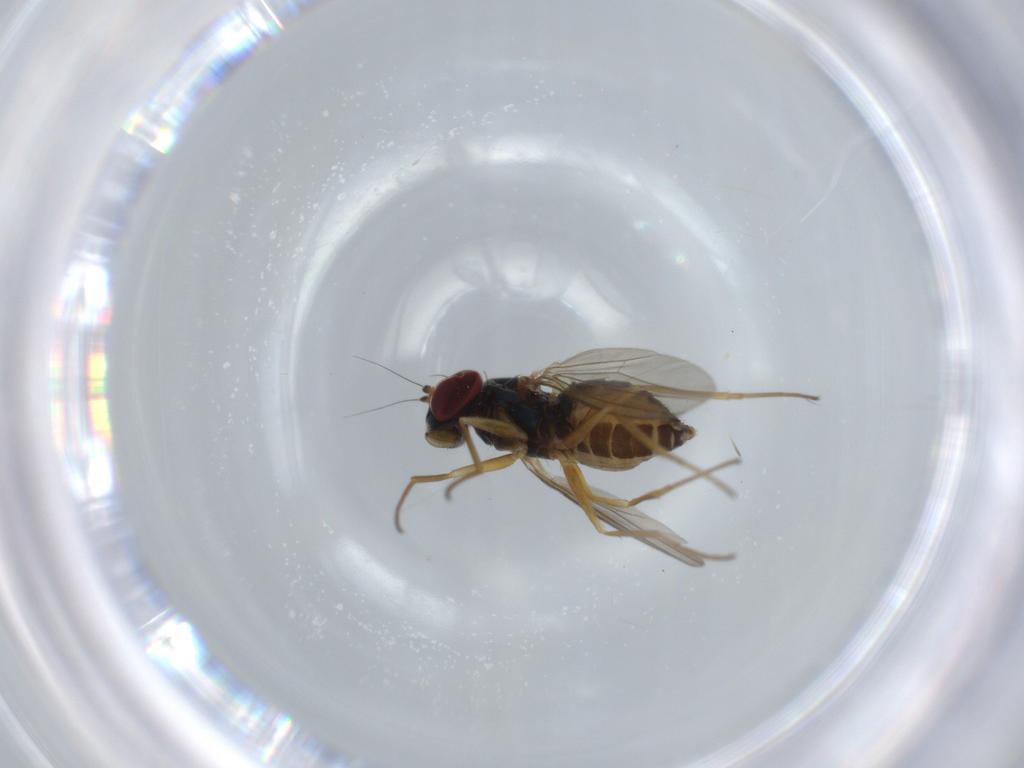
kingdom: Animalia
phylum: Arthropoda
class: Insecta
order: Diptera
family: Dolichopodidae
